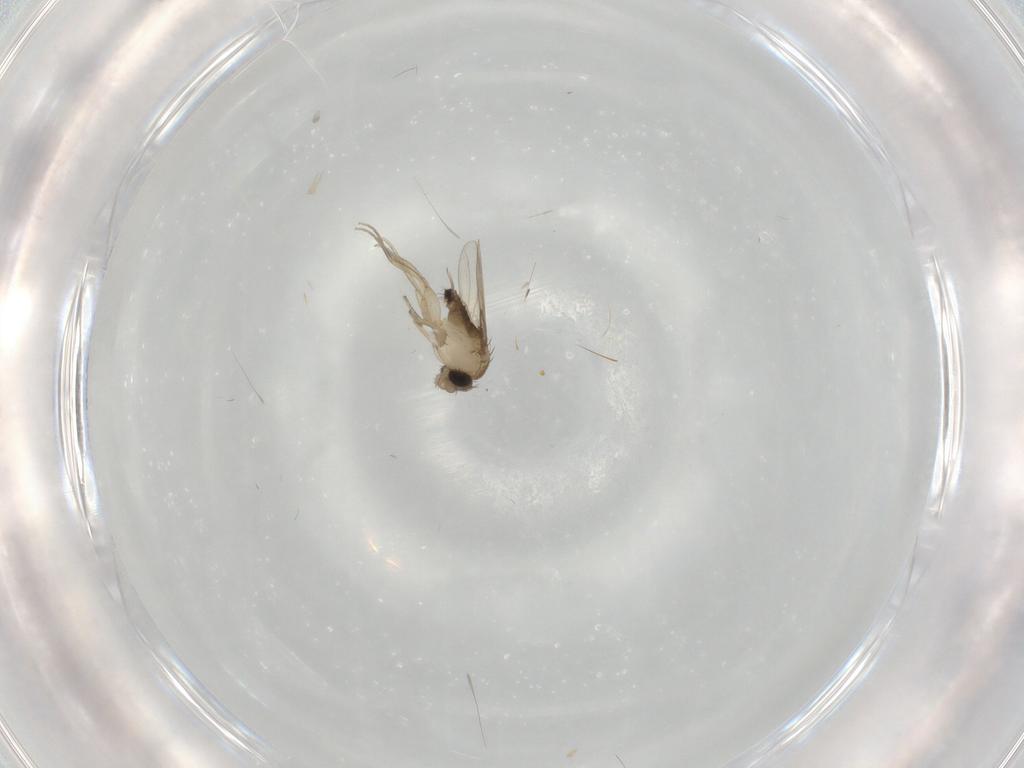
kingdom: Animalia
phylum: Arthropoda
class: Insecta
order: Diptera
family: Phoridae
